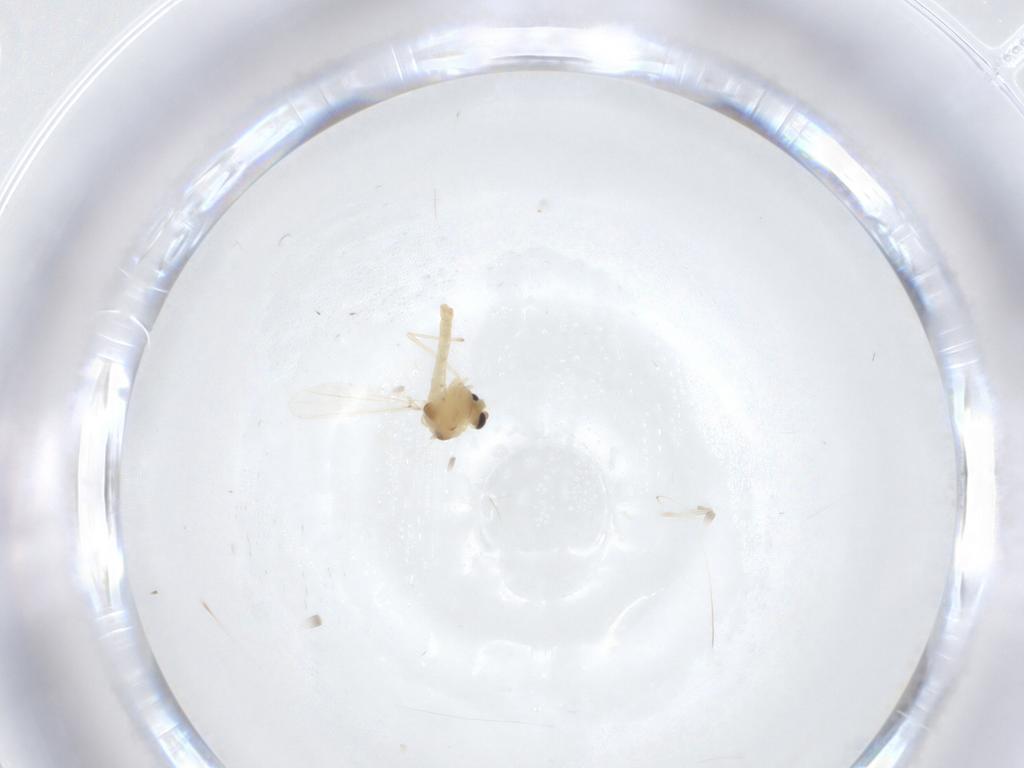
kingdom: Animalia
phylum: Arthropoda
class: Insecta
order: Diptera
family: Chironomidae
